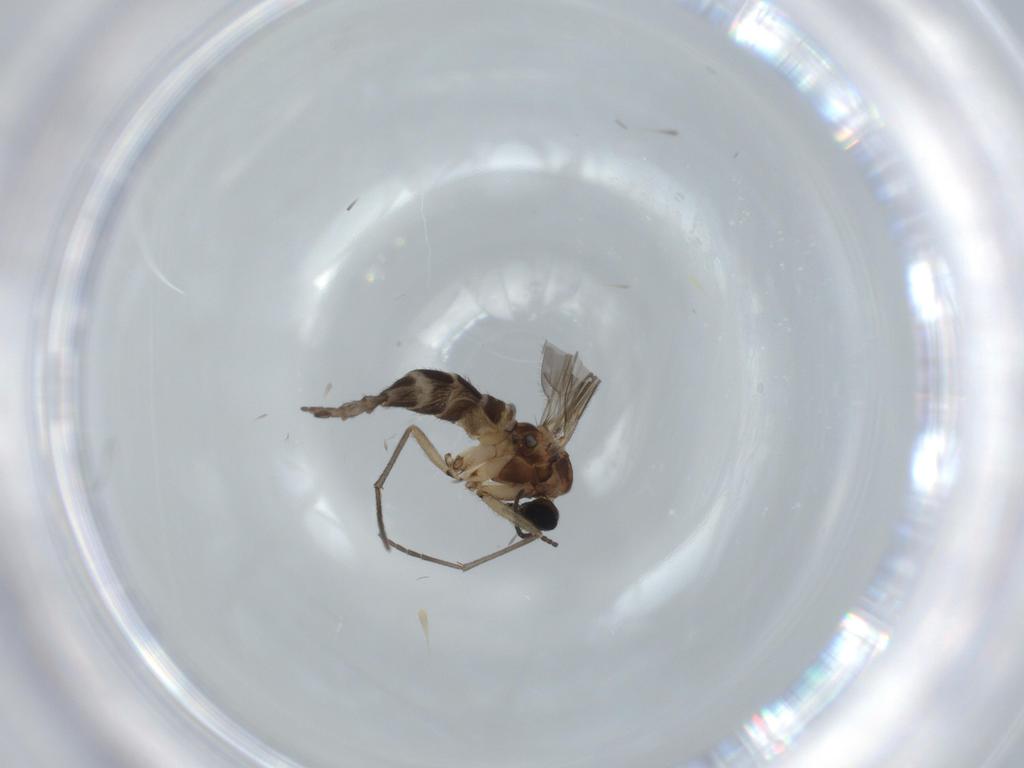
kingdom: Animalia
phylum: Arthropoda
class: Insecta
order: Diptera
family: Sciaridae
